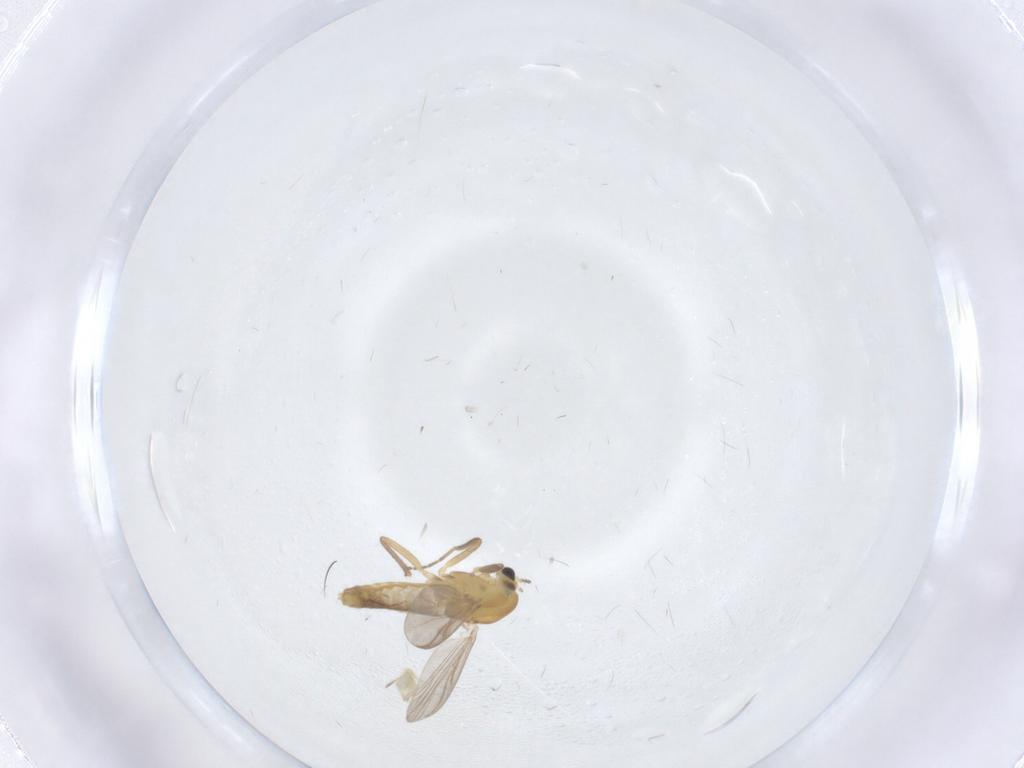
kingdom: Animalia
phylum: Arthropoda
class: Insecta
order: Diptera
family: Chironomidae
